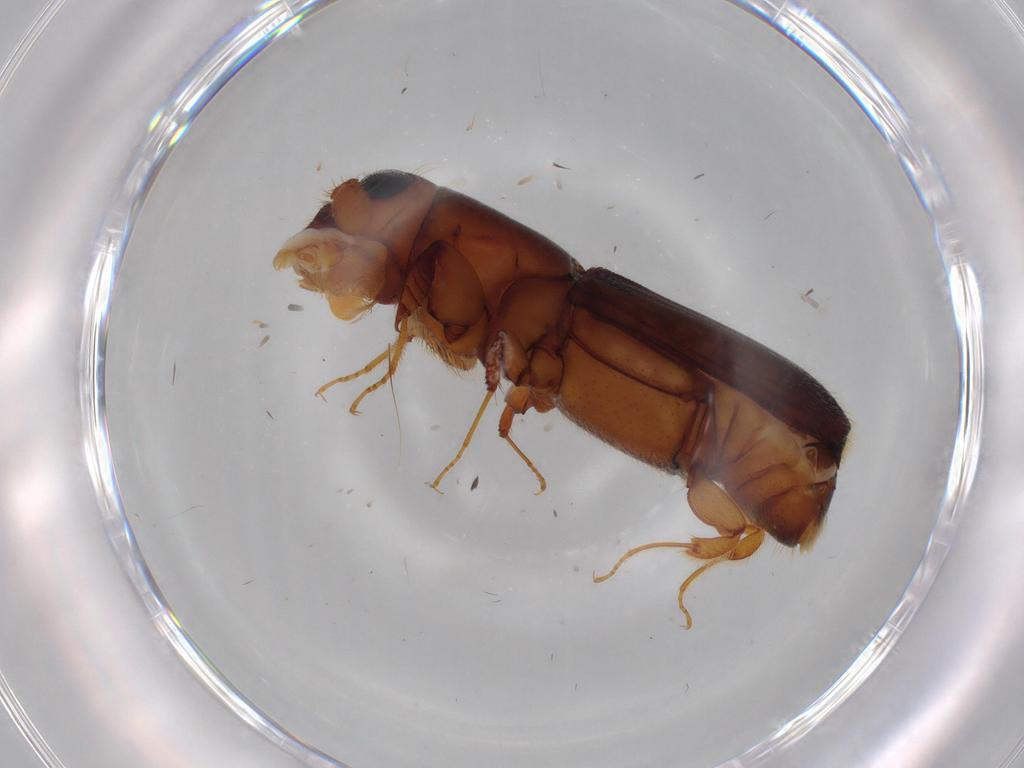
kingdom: Animalia
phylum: Arthropoda
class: Insecta
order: Coleoptera
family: Curculionidae
